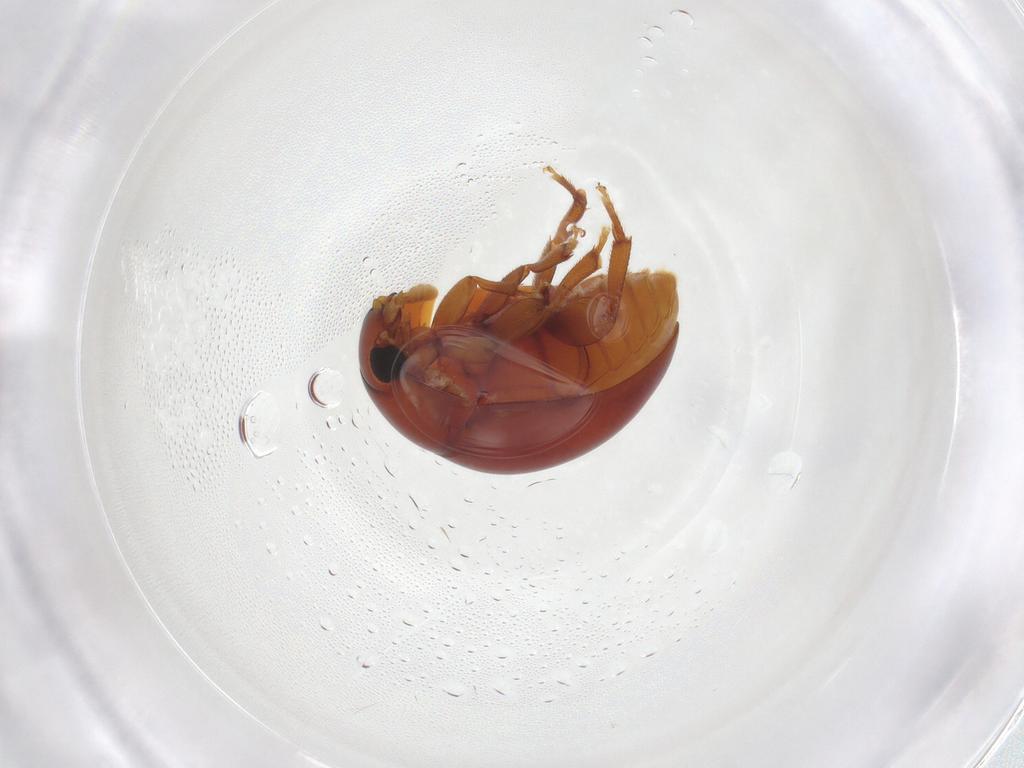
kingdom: Animalia
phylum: Arthropoda
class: Insecta
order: Coleoptera
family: Phalacridae
